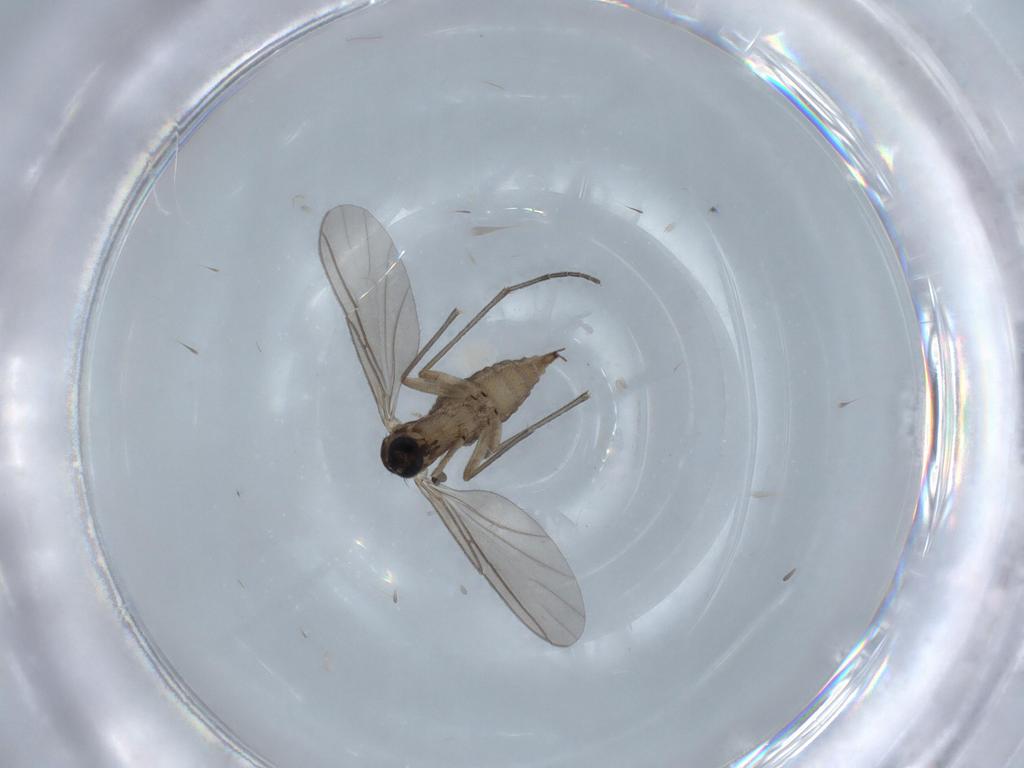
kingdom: Animalia
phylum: Arthropoda
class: Insecta
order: Diptera
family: Sciaridae
